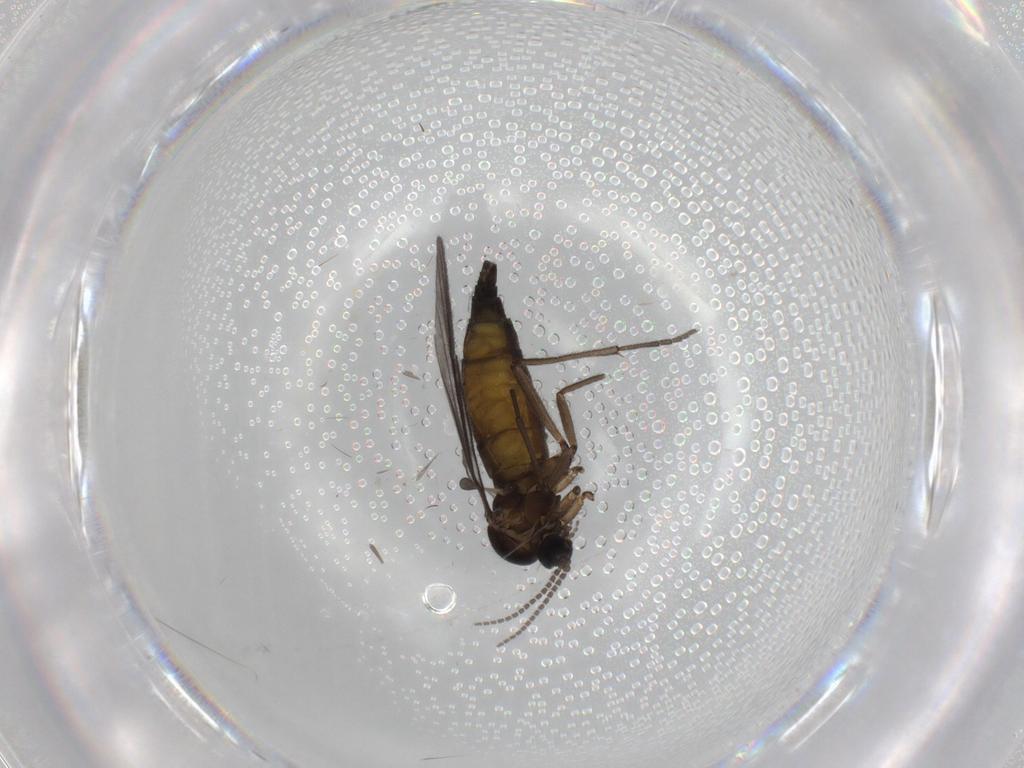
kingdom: Animalia
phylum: Arthropoda
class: Insecta
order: Diptera
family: Sciaridae
